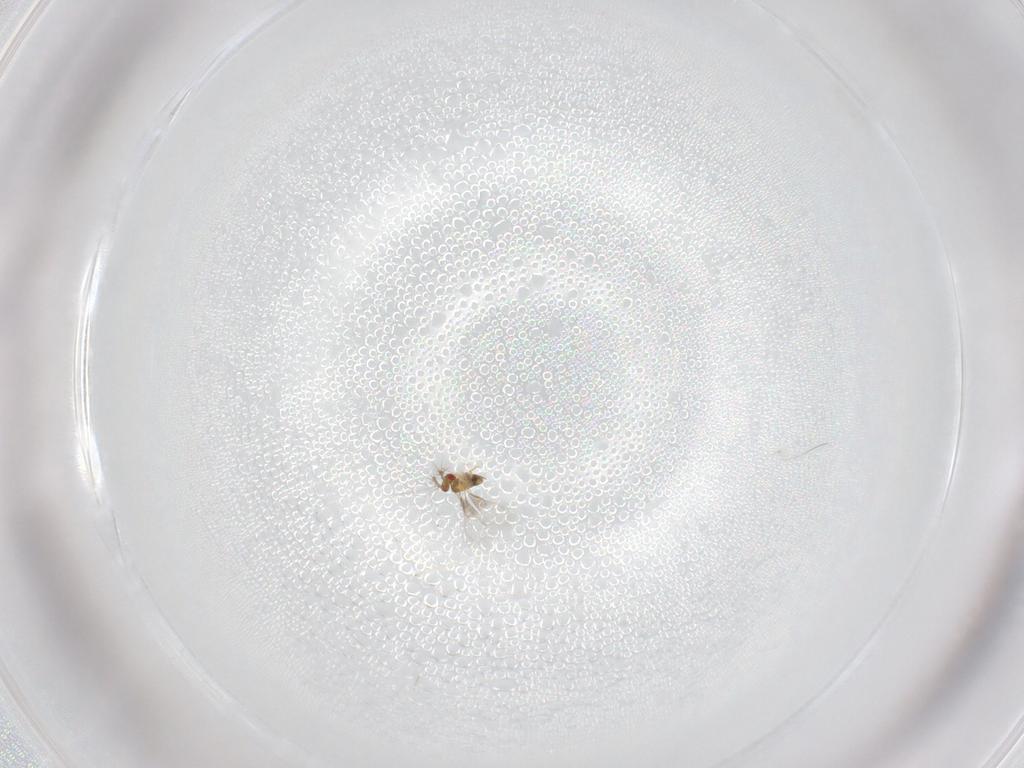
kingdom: Animalia
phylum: Arthropoda
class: Insecta
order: Hymenoptera
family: Trichogrammatidae
